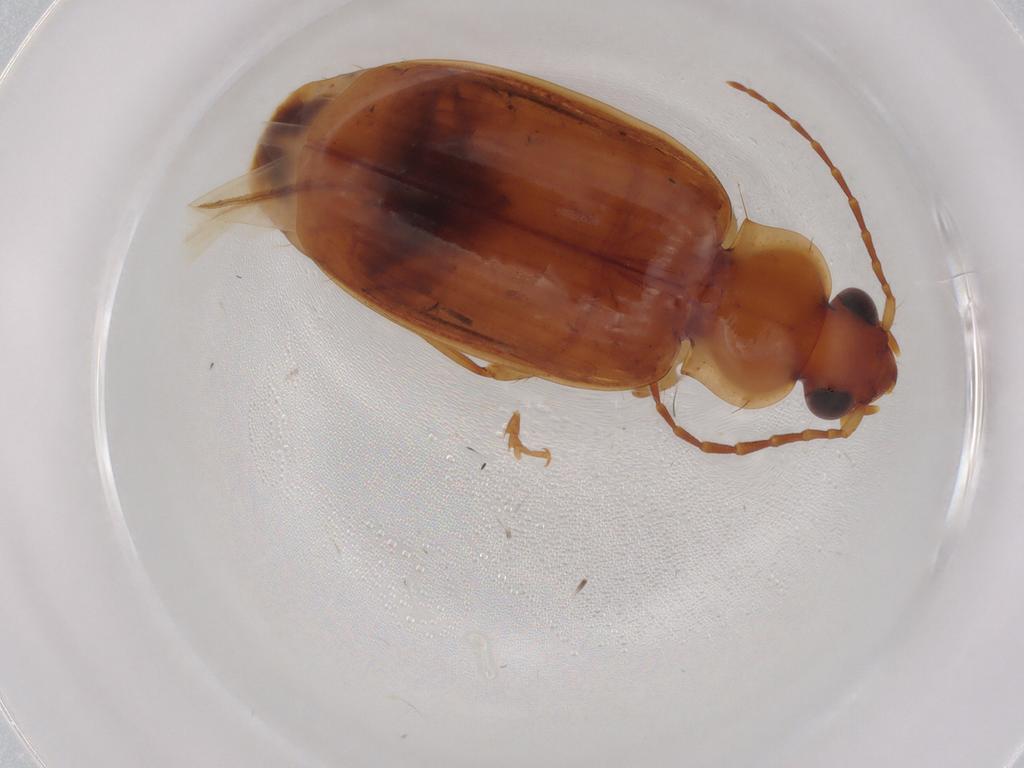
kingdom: Animalia
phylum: Arthropoda
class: Insecta
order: Coleoptera
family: Carabidae
